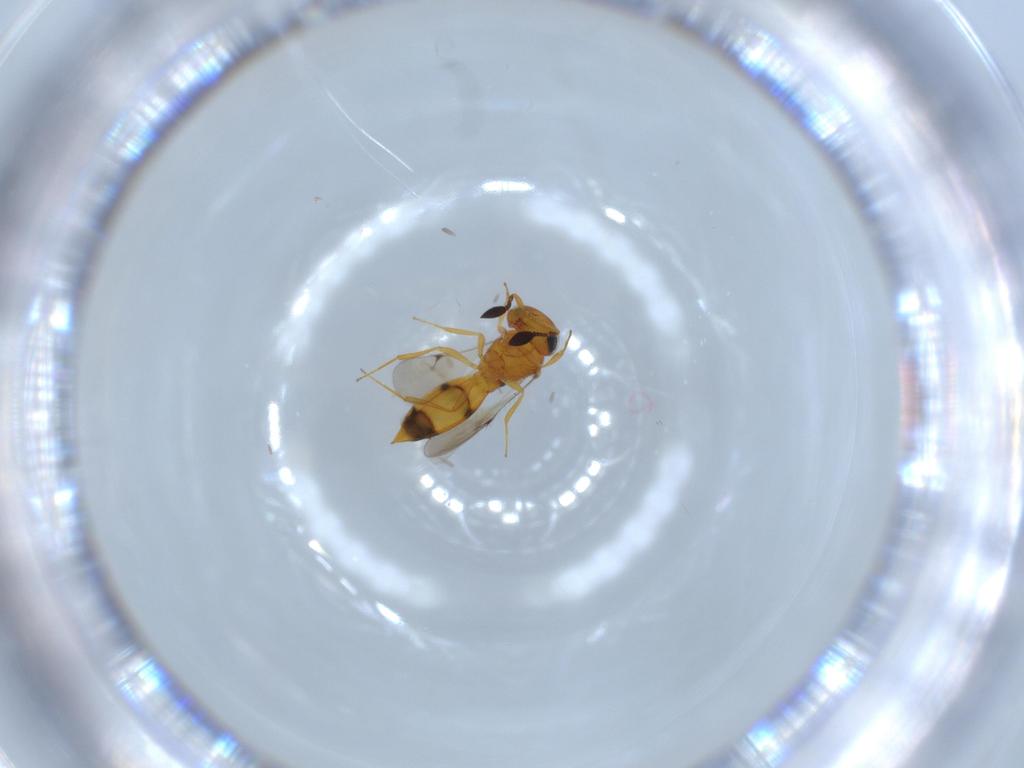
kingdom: Animalia
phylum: Arthropoda
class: Insecta
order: Hymenoptera
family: Scelionidae
